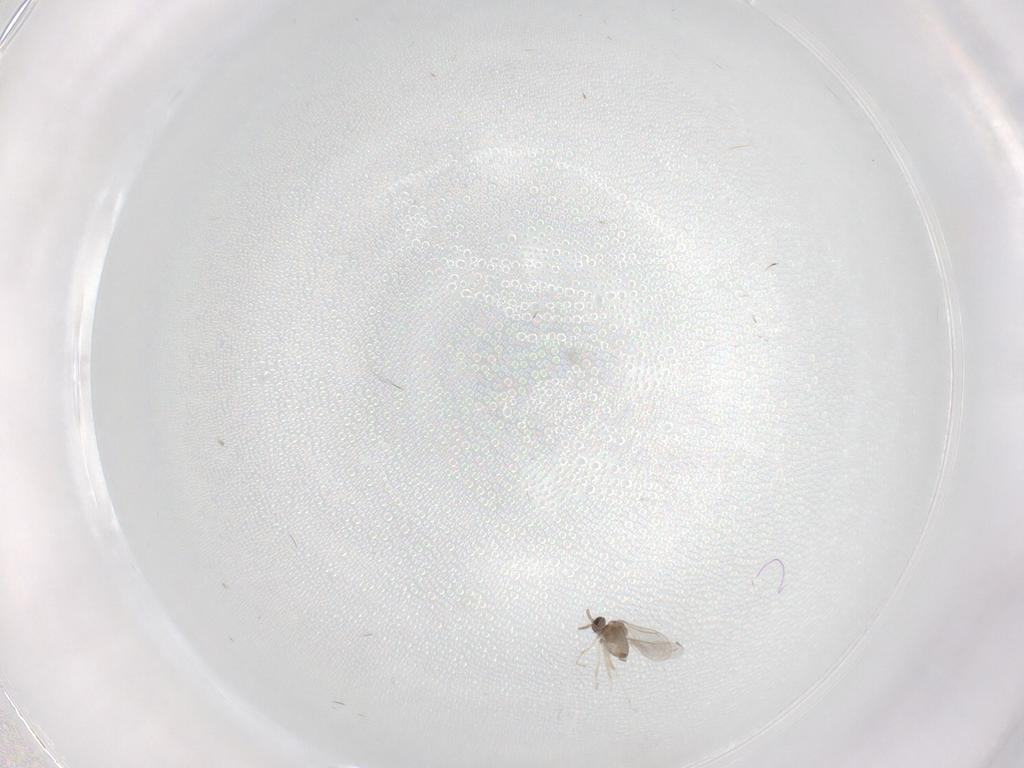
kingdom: Animalia
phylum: Arthropoda
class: Insecta
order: Diptera
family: Cecidomyiidae
